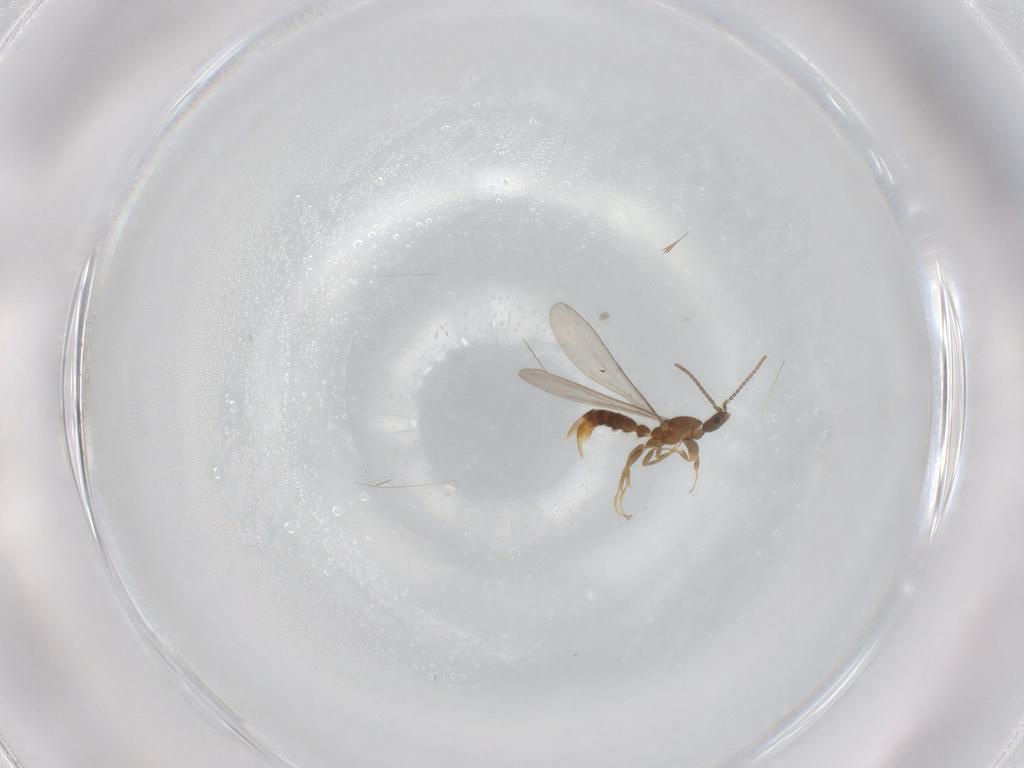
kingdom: Animalia
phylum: Arthropoda
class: Insecta
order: Hymenoptera
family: Formicidae
